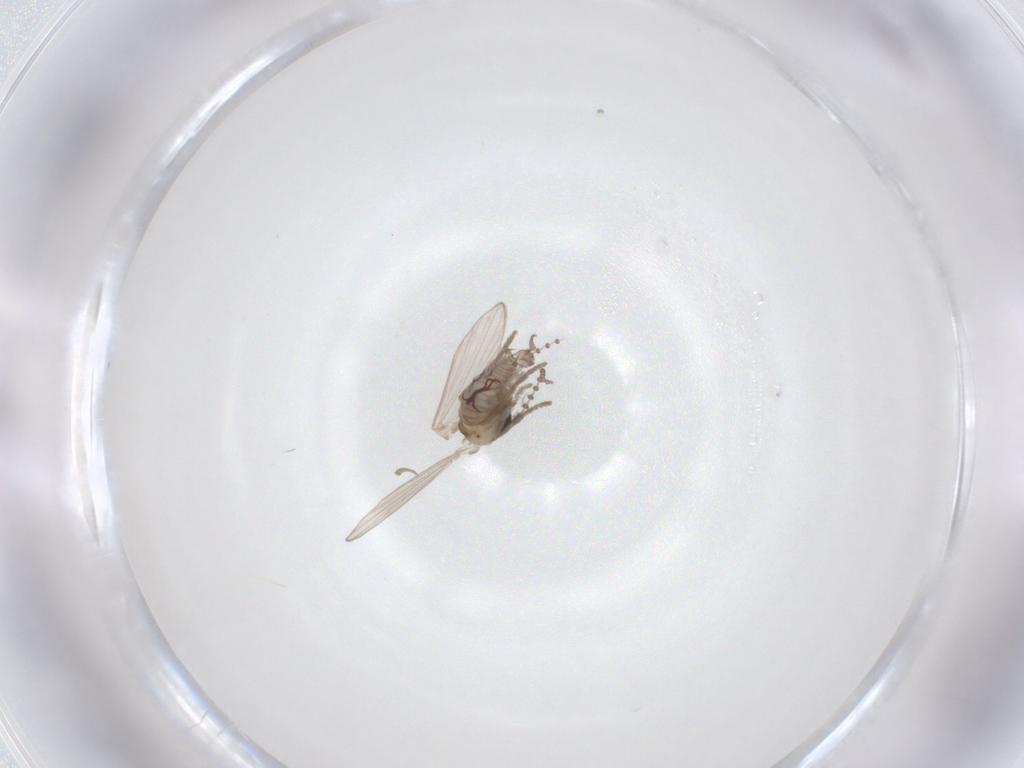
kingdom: Animalia
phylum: Arthropoda
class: Insecta
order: Diptera
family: Psychodidae
